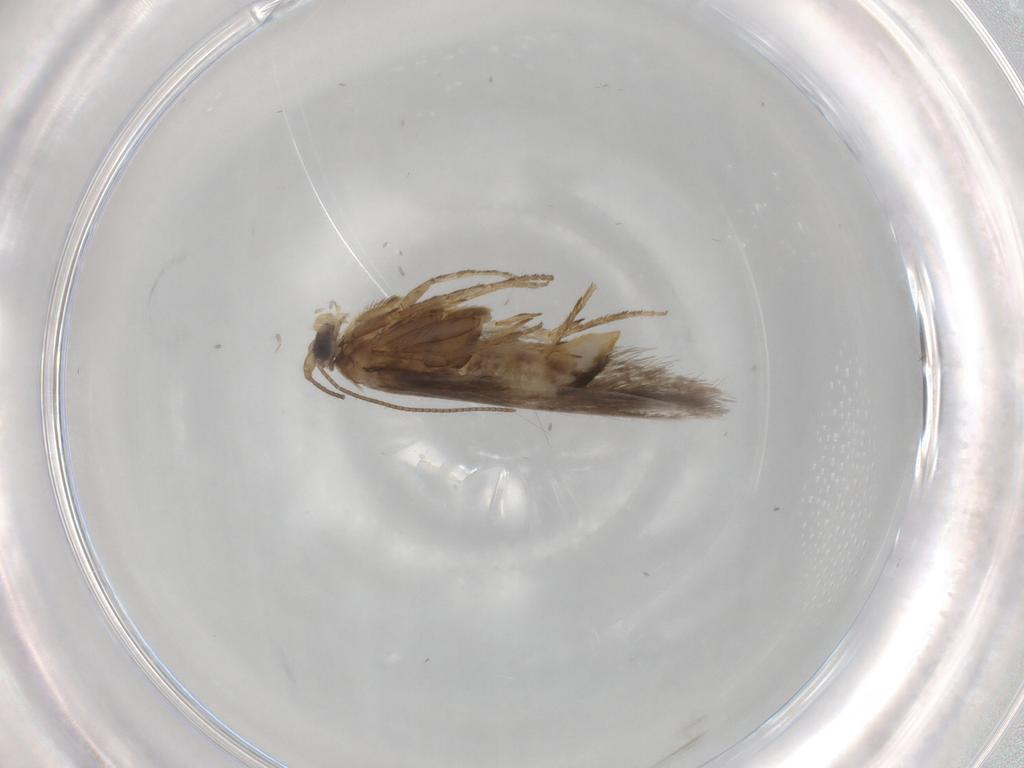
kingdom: Animalia
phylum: Arthropoda
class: Insecta
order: Lepidoptera
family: Nepticulidae
